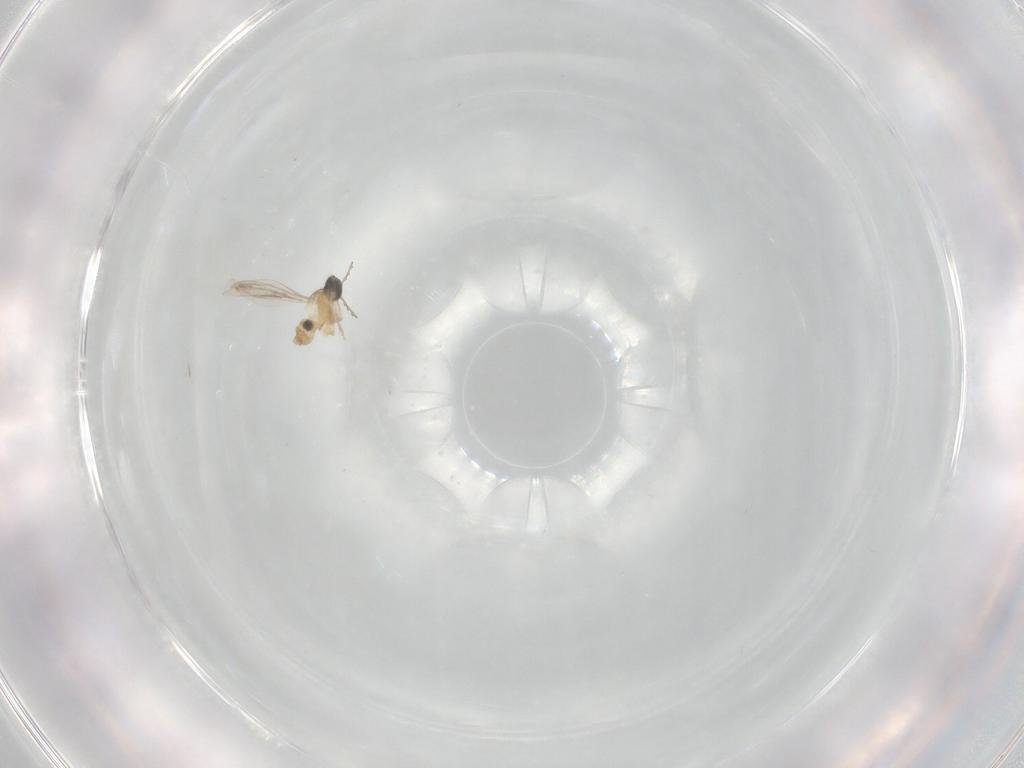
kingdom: Animalia
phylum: Arthropoda
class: Insecta
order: Diptera
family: Cecidomyiidae
